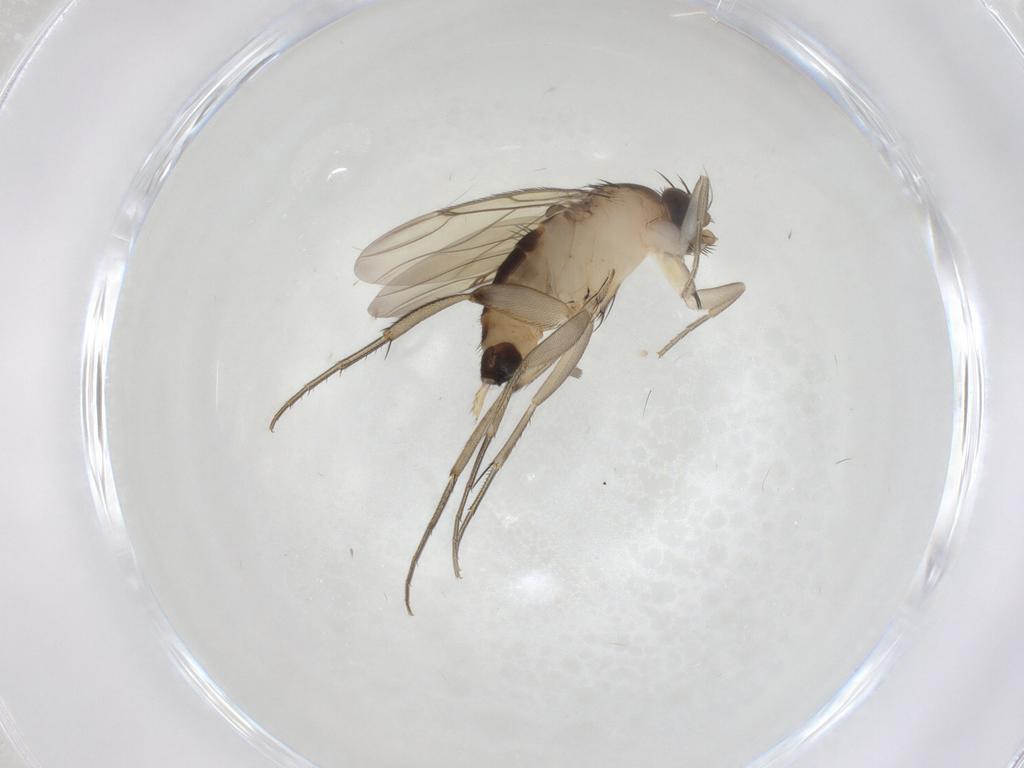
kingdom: Animalia
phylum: Arthropoda
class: Insecta
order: Diptera
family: Phoridae
